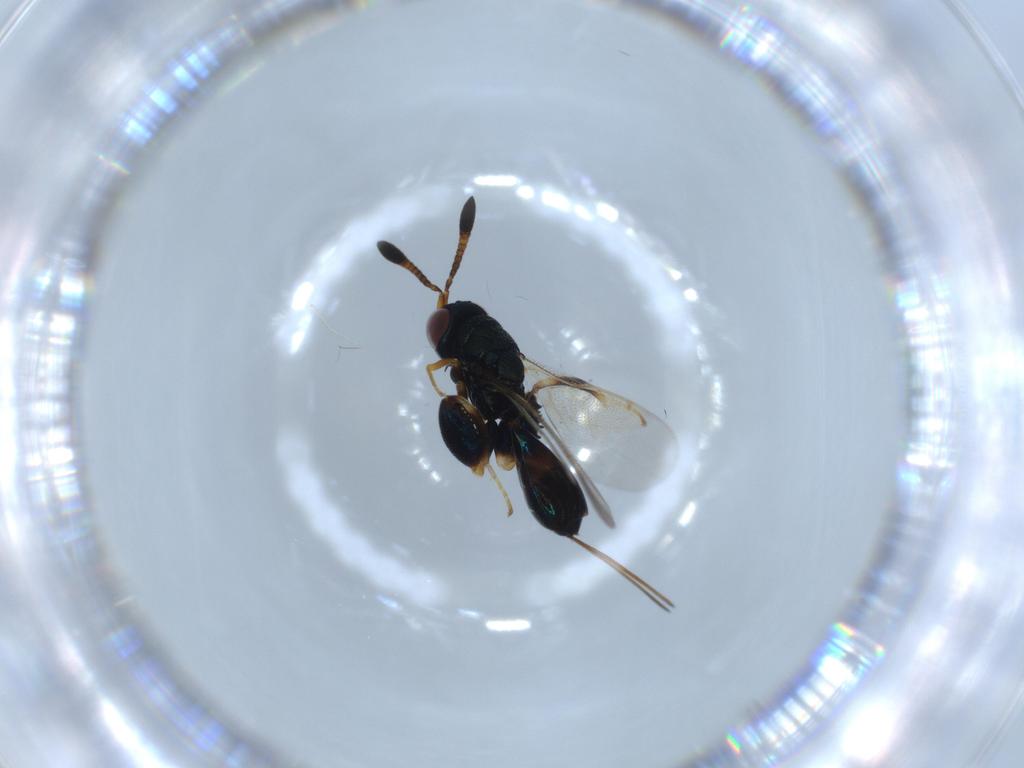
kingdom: Animalia
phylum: Arthropoda
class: Insecta
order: Hymenoptera
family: Torymidae
